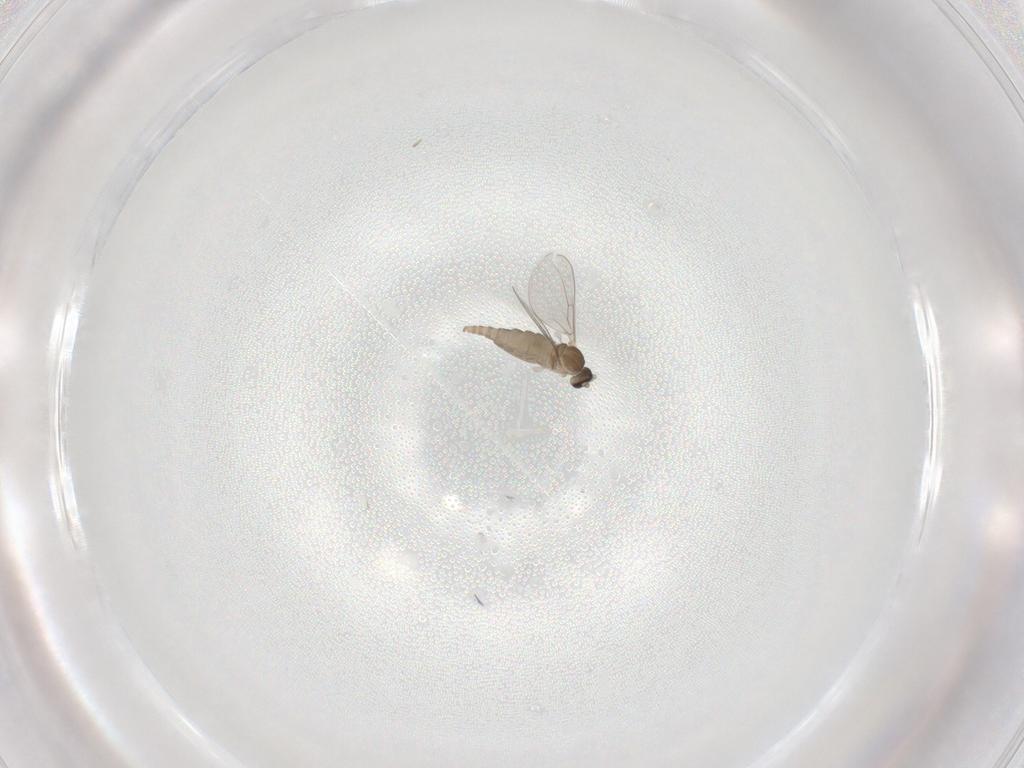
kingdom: Animalia
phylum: Arthropoda
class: Insecta
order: Diptera
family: Cecidomyiidae
